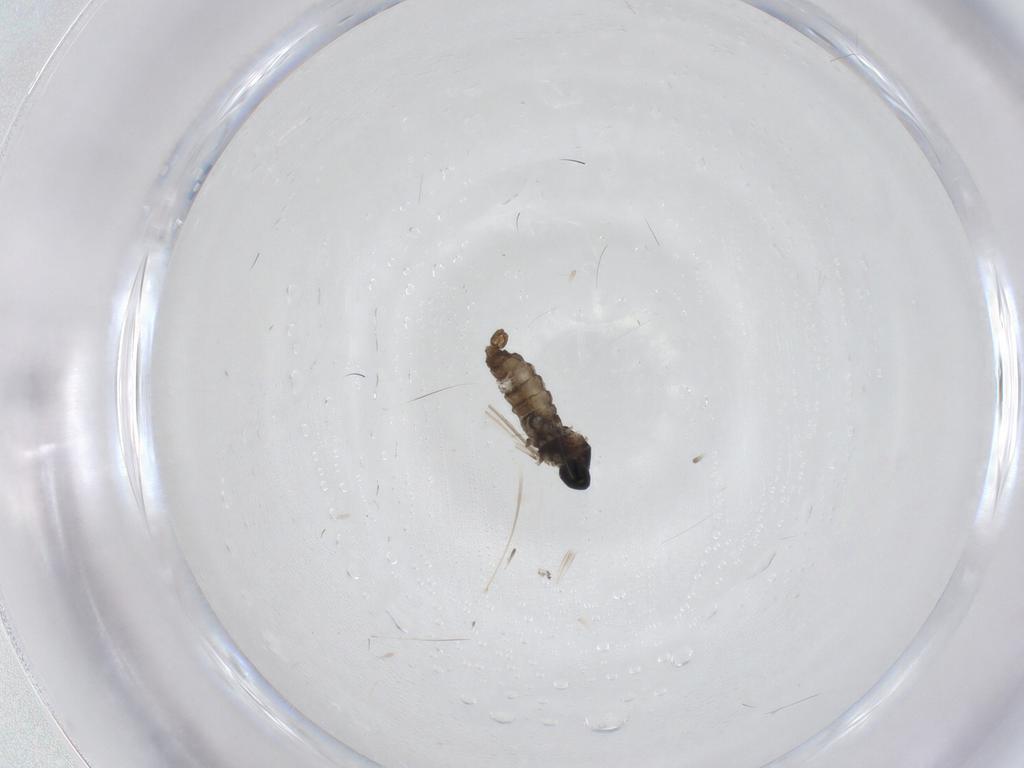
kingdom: Animalia
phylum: Arthropoda
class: Insecta
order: Diptera
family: Cecidomyiidae
